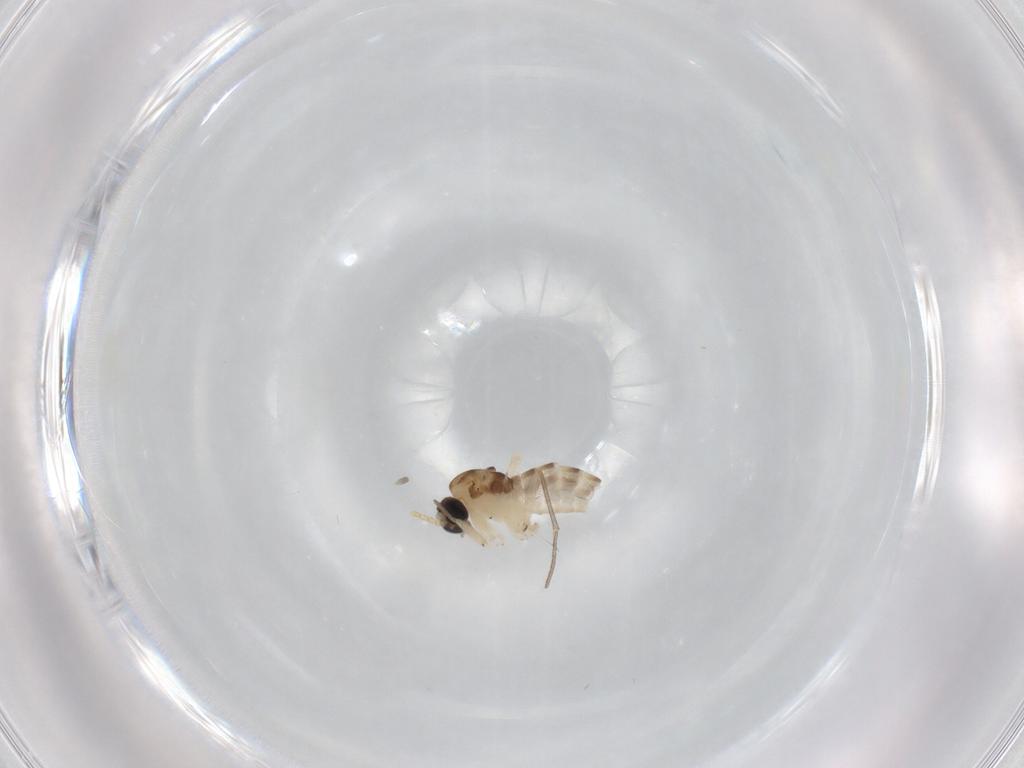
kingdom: Animalia
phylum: Arthropoda
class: Insecta
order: Diptera
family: Sciaridae
